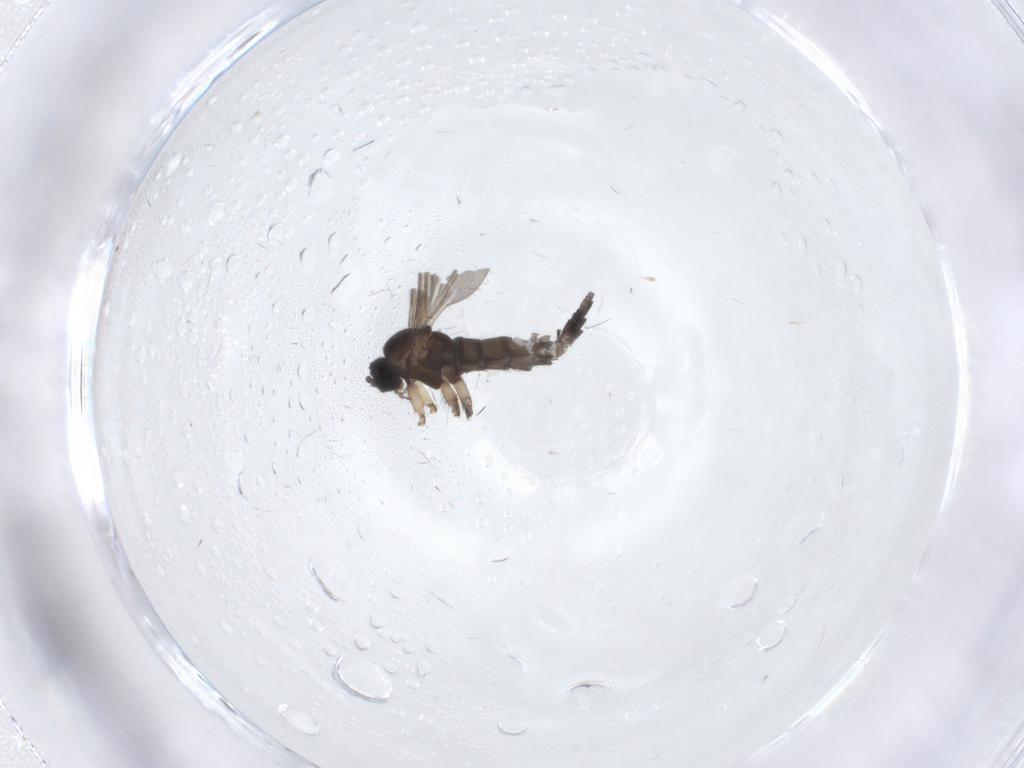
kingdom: Animalia
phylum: Arthropoda
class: Insecta
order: Diptera
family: Sciaridae
